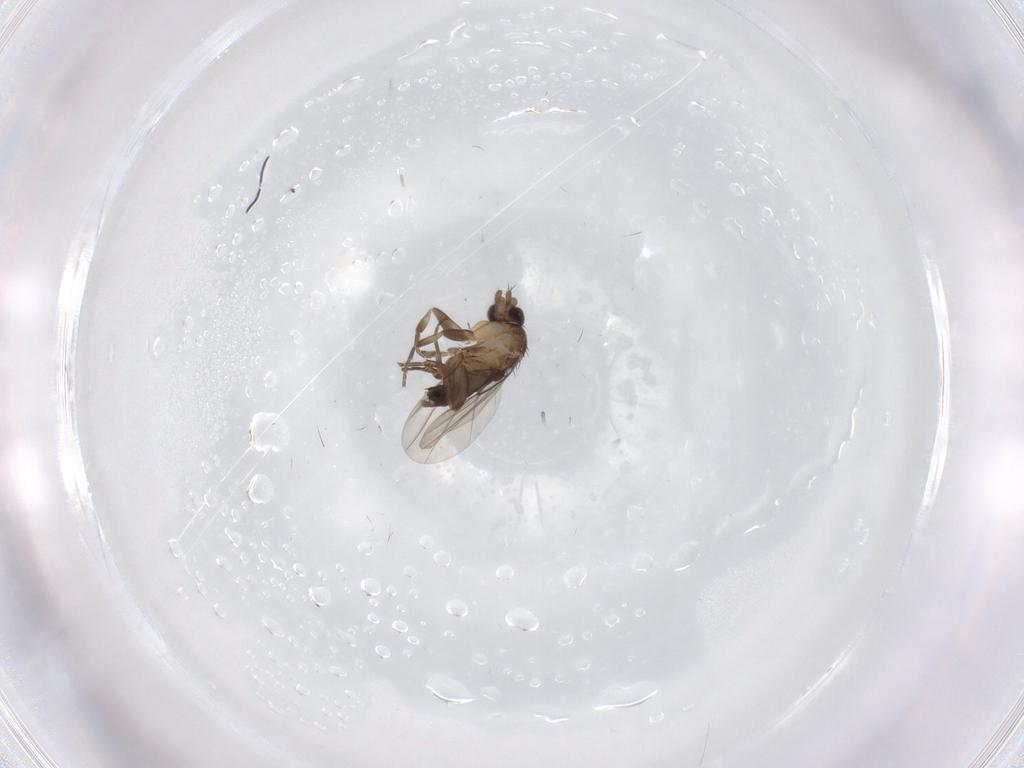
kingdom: Animalia
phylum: Arthropoda
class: Insecta
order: Diptera
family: Phoridae
